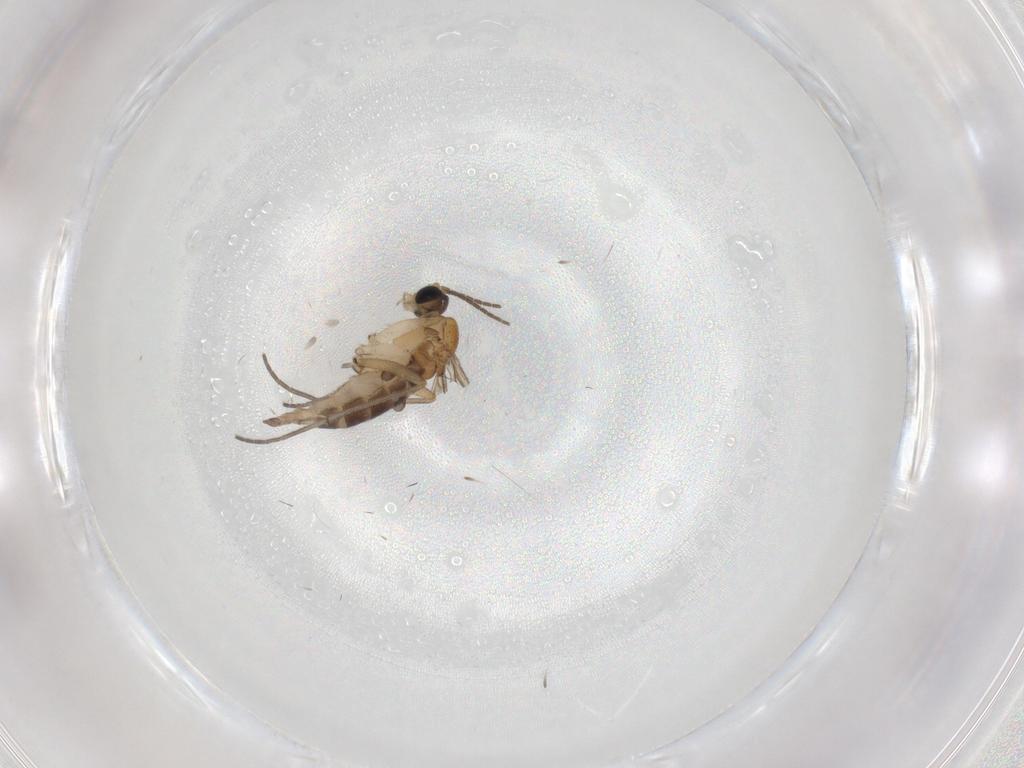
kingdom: Animalia
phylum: Arthropoda
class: Insecta
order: Diptera
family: Sciaridae
